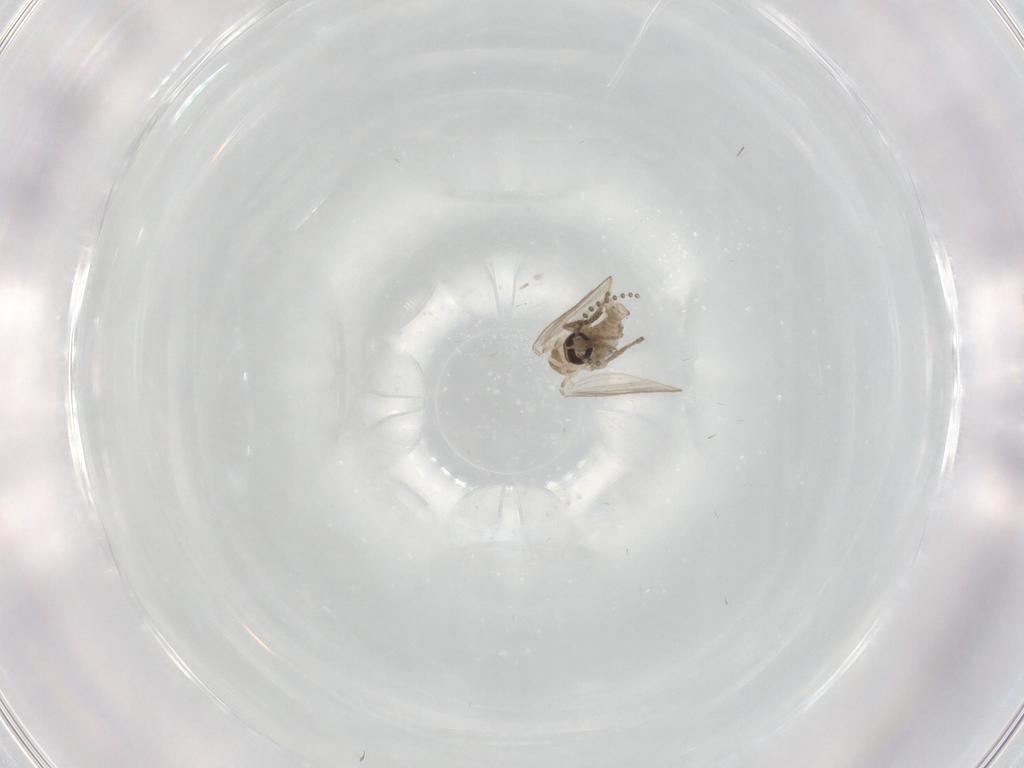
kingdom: Animalia
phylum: Arthropoda
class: Insecta
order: Diptera
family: Psychodidae
